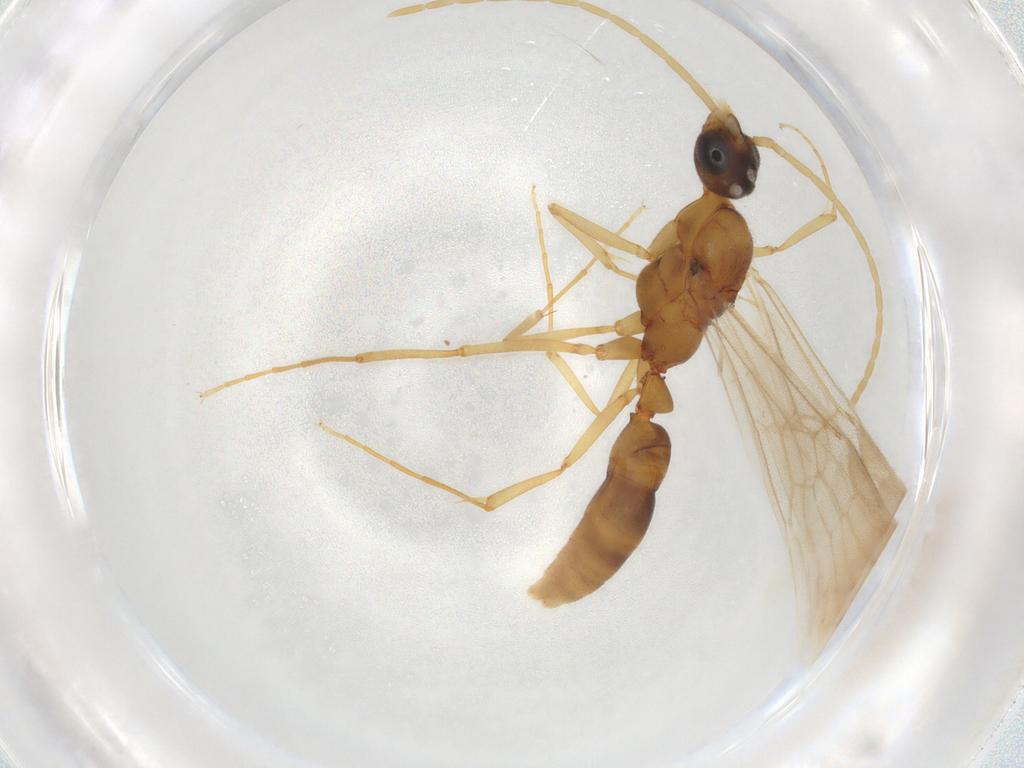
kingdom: Animalia
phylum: Arthropoda
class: Insecta
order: Hymenoptera
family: Formicidae
